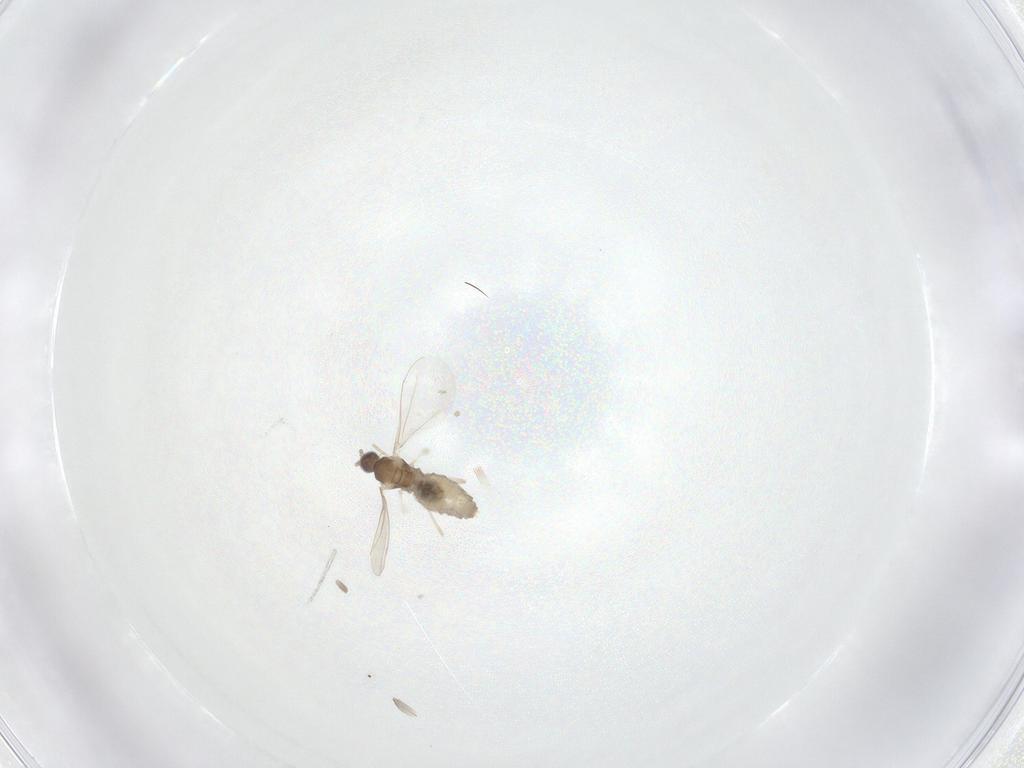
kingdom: Animalia
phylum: Arthropoda
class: Insecta
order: Diptera
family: Cecidomyiidae
